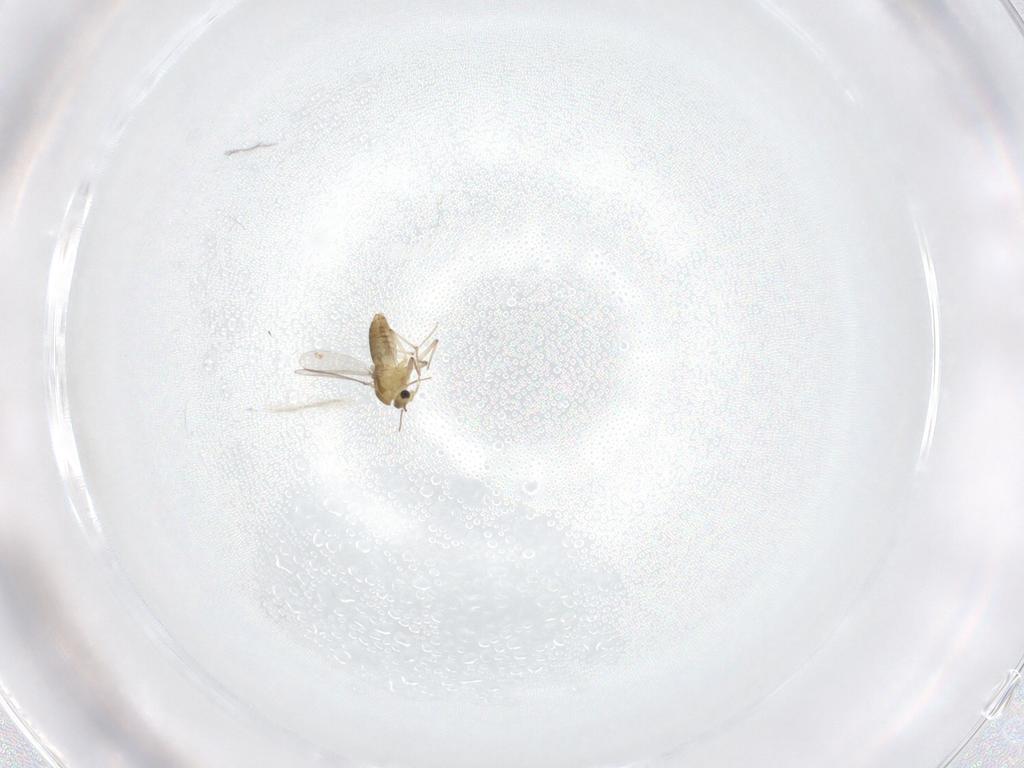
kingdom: Animalia
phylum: Arthropoda
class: Insecta
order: Diptera
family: Chironomidae
